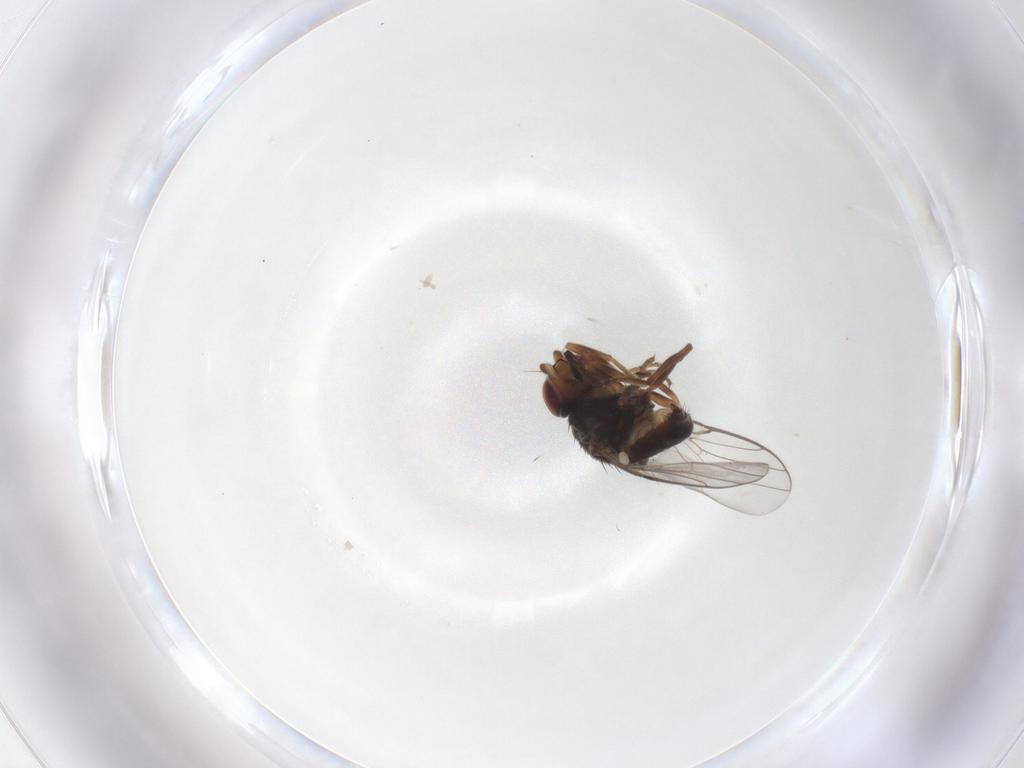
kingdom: Animalia
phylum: Arthropoda
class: Insecta
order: Diptera
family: Chloropidae
